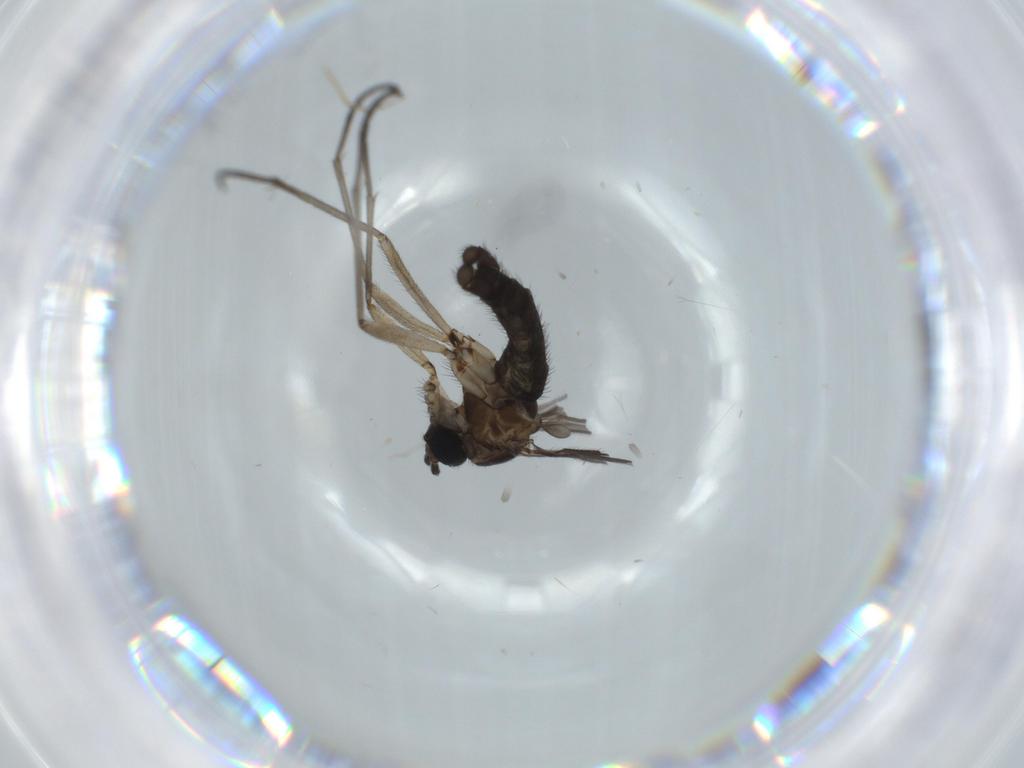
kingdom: Animalia
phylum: Arthropoda
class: Insecta
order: Diptera
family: Sciaridae
